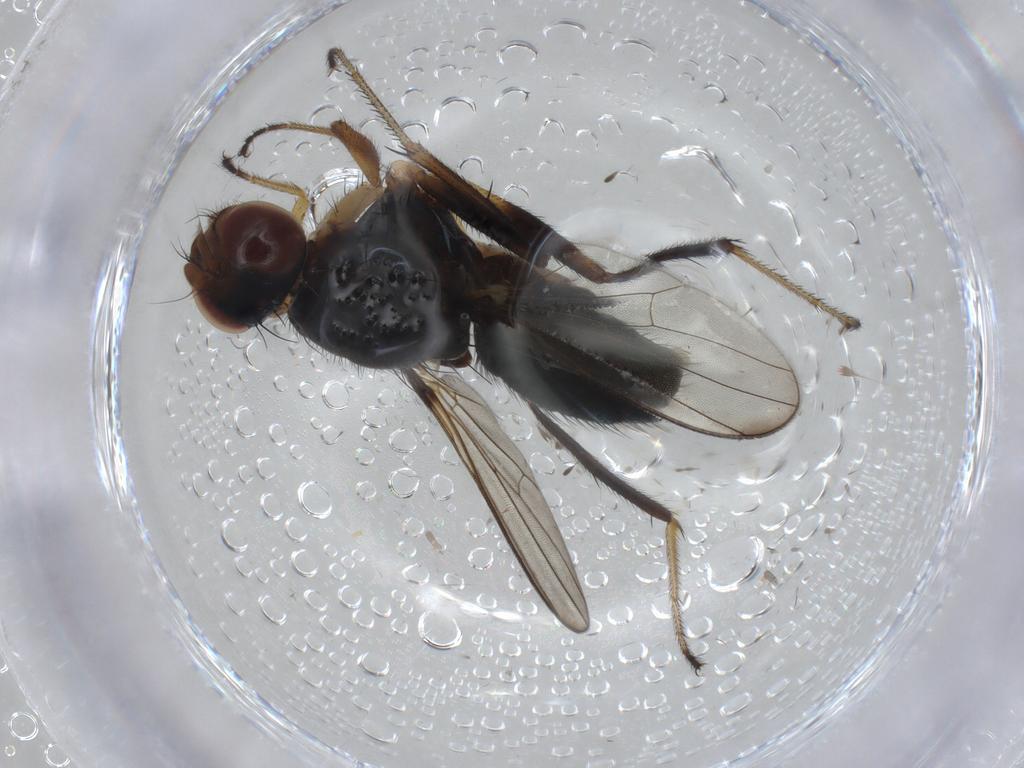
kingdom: Animalia
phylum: Arthropoda
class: Insecta
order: Diptera
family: Sepsidae
